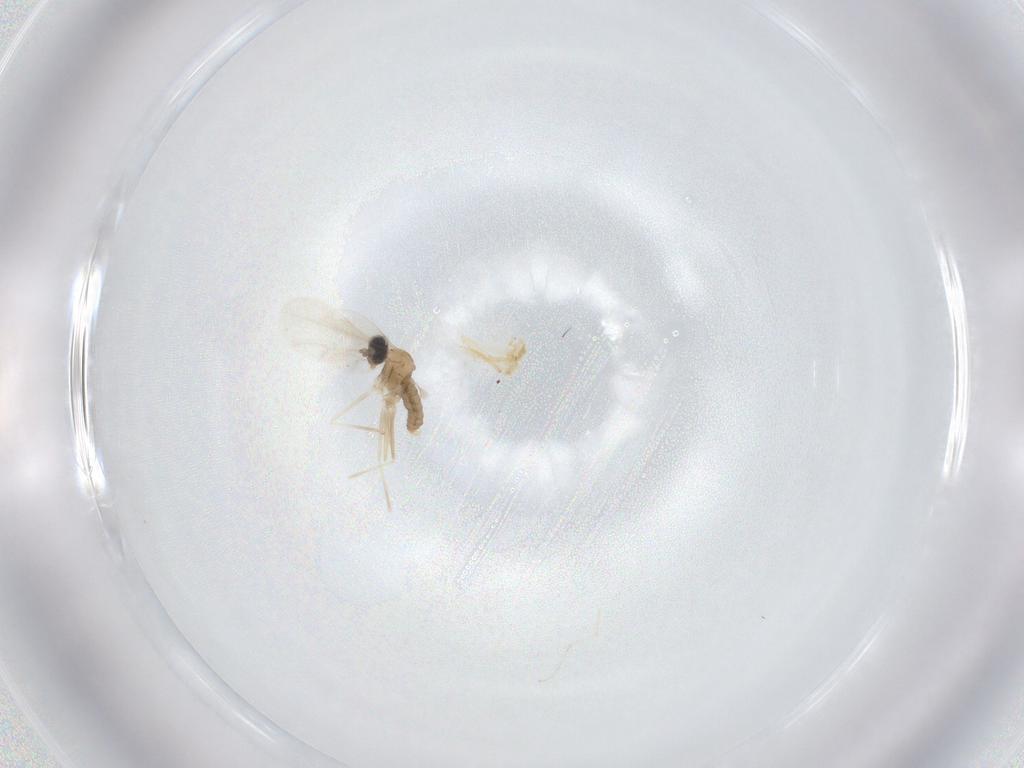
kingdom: Animalia
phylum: Arthropoda
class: Insecta
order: Diptera
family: Cecidomyiidae
